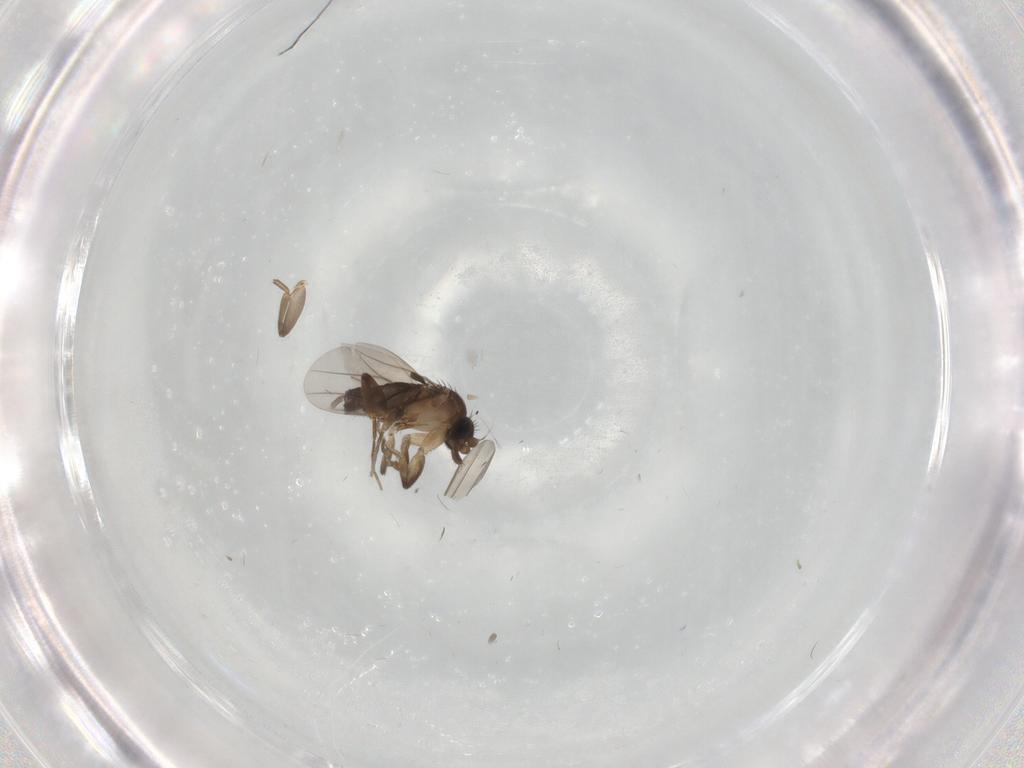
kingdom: Animalia
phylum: Arthropoda
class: Insecta
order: Diptera
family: Phoridae
